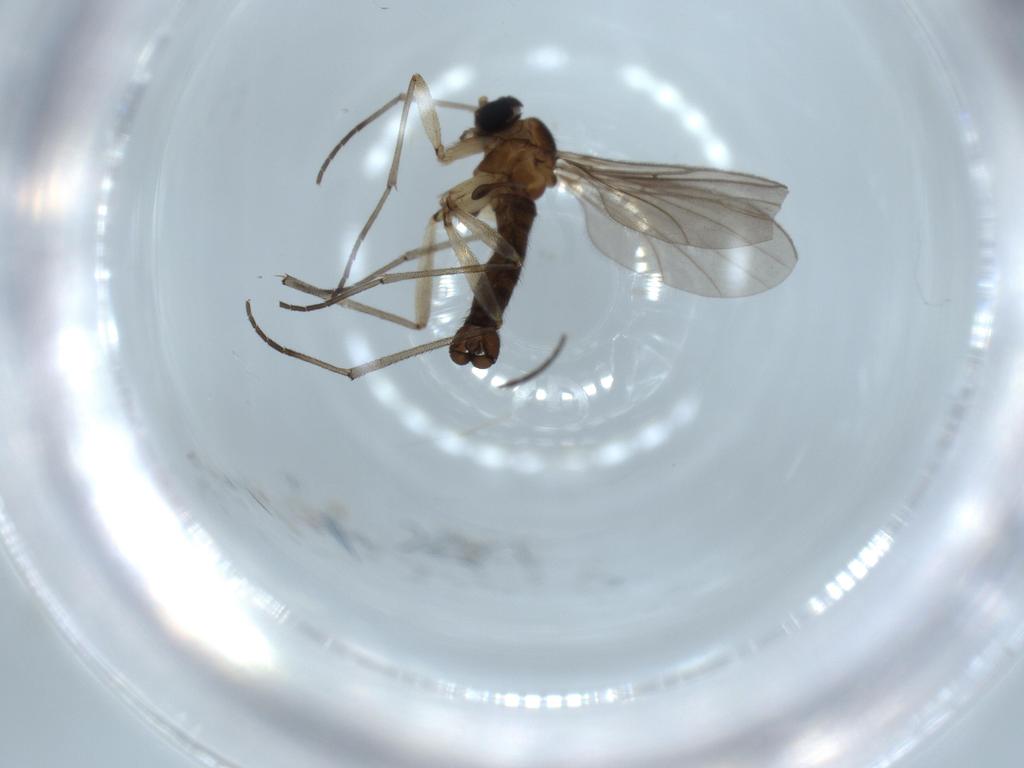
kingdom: Animalia
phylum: Arthropoda
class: Insecta
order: Diptera
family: Sciaridae
